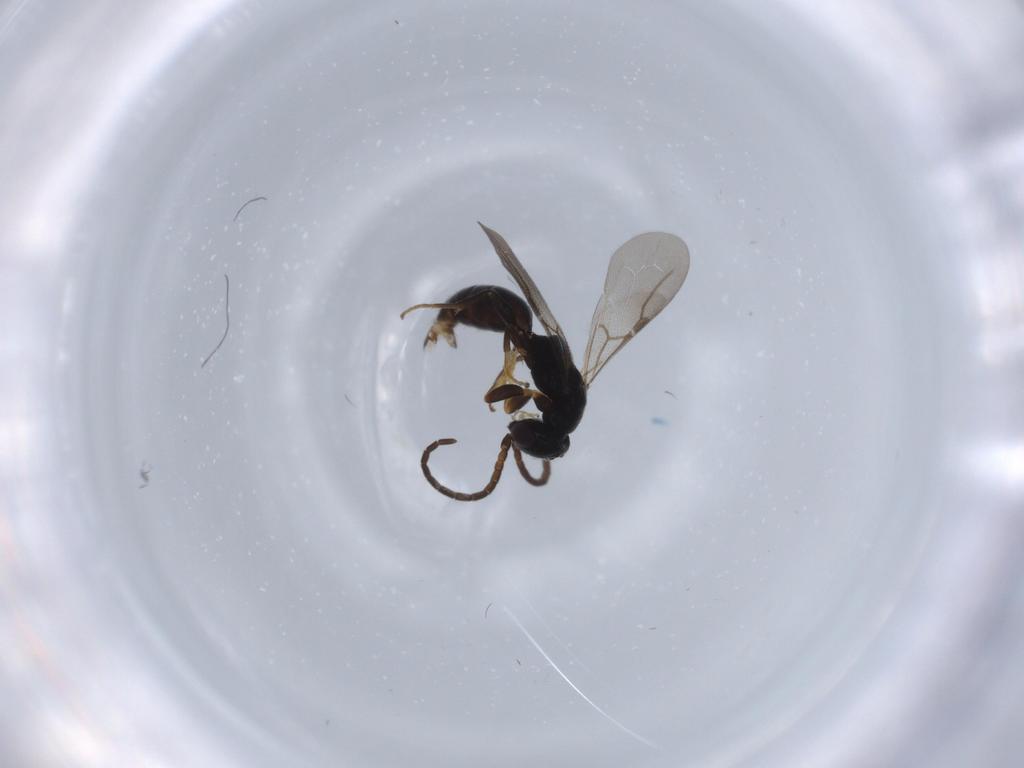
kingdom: Animalia
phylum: Arthropoda
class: Insecta
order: Hymenoptera
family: Bethylidae
